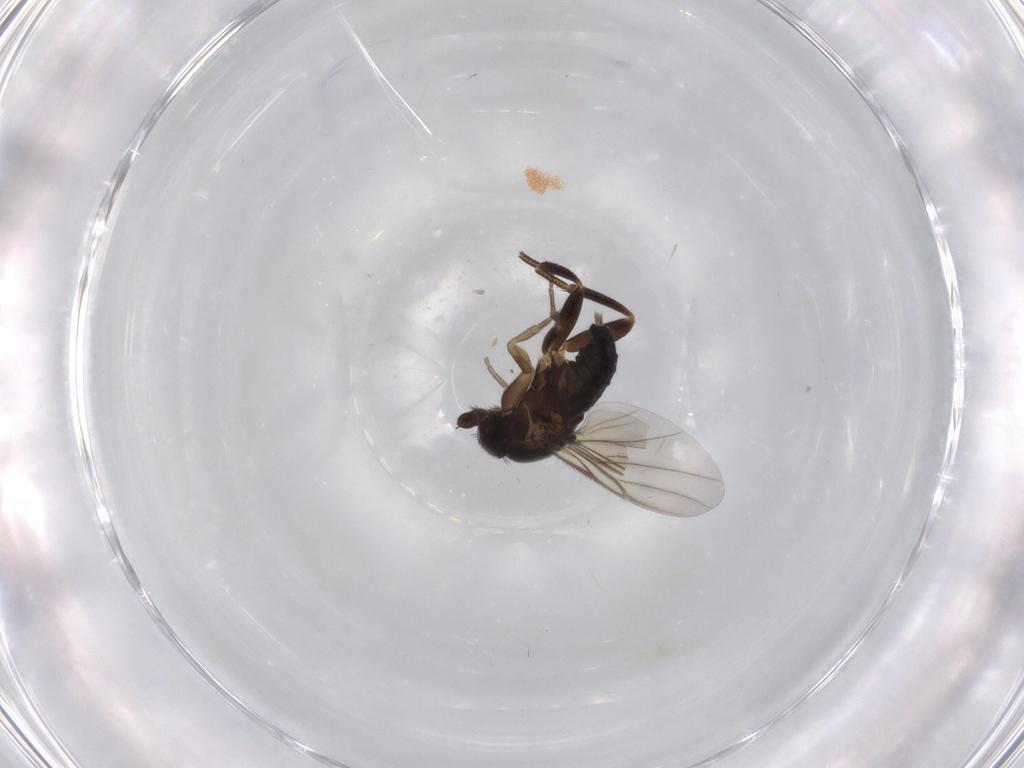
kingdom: Animalia
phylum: Arthropoda
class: Insecta
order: Diptera
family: Cecidomyiidae
